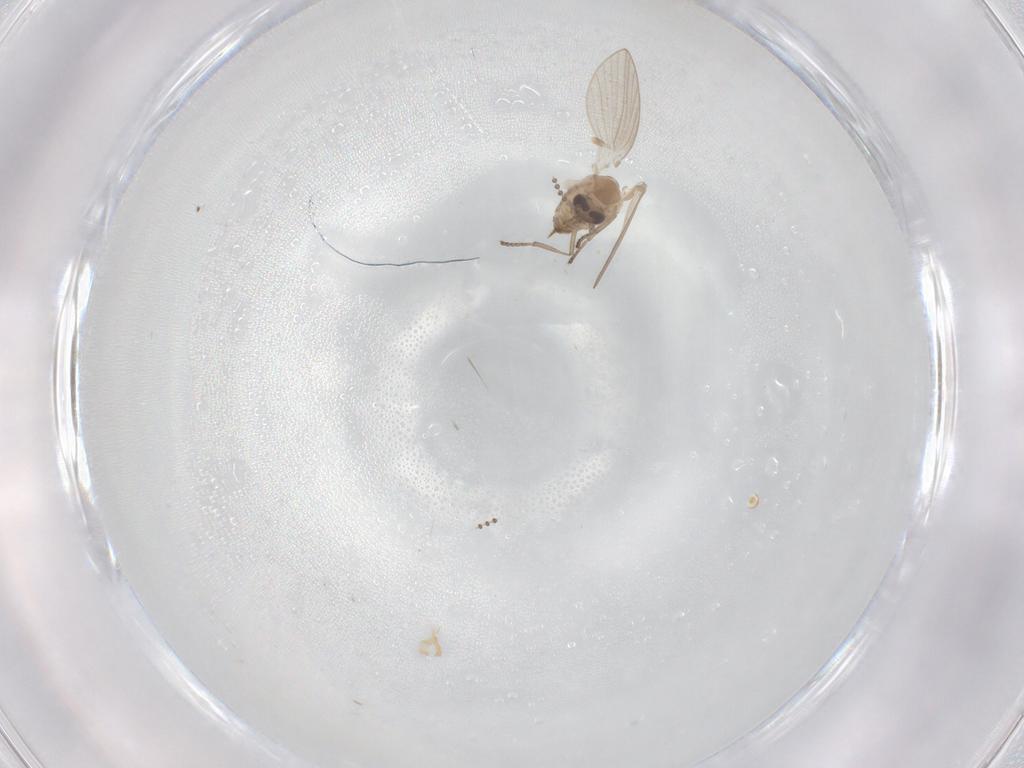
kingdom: Animalia
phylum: Arthropoda
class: Insecta
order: Diptera
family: Psychodidae
